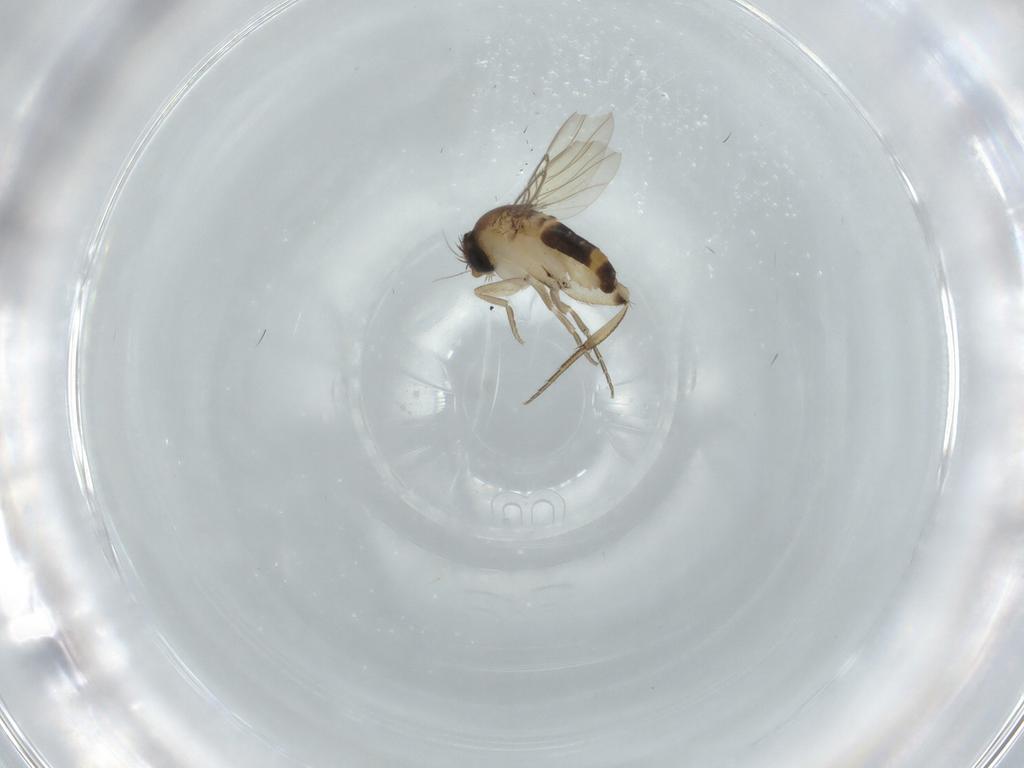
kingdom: Animalia
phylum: Arthropoda
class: Insecta
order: Diptera
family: Phoridae
